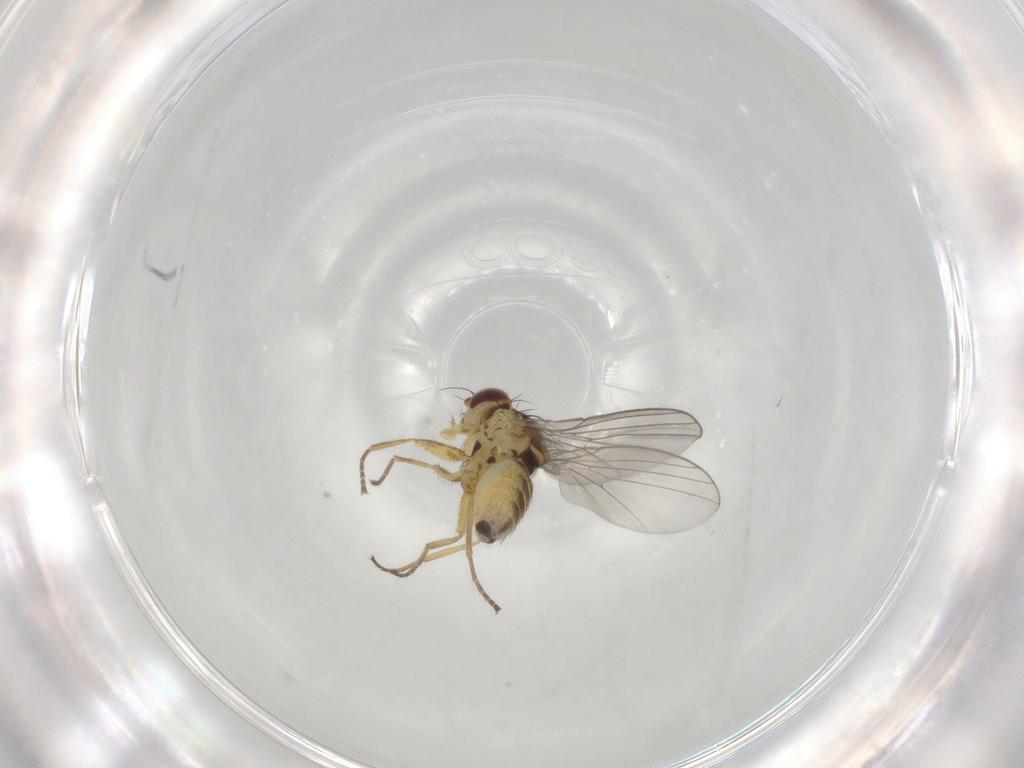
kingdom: Animalia
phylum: Arthropoda
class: Insecta
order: Diptera
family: Agromyzidae
